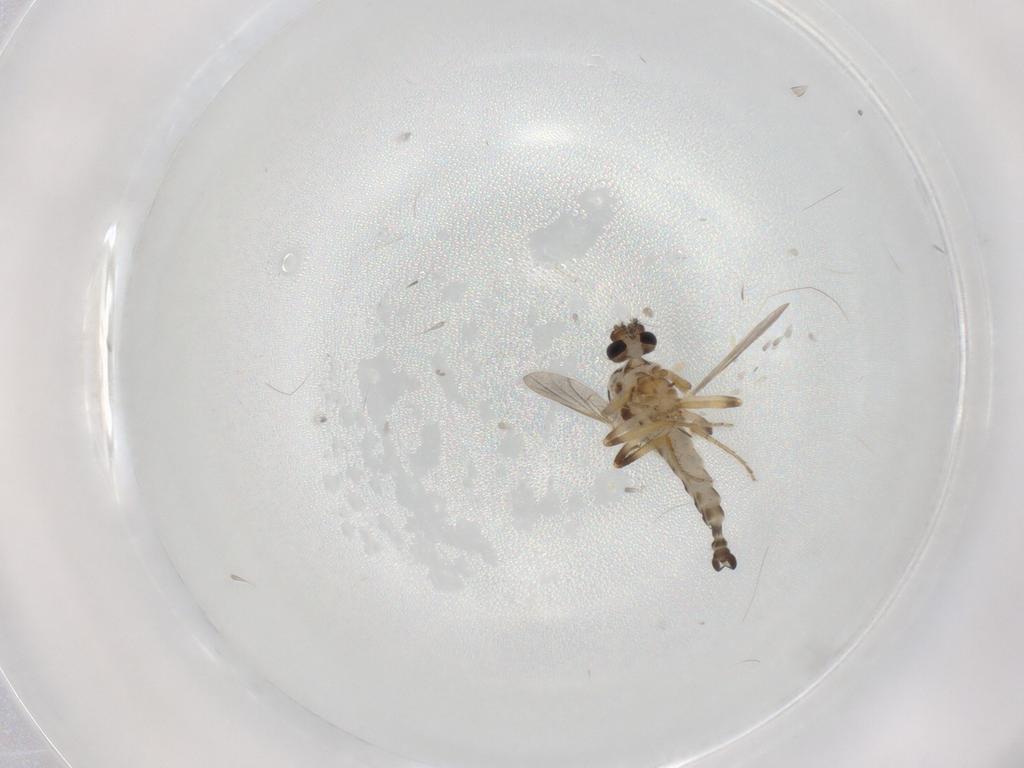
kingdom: Animalia
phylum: Arthropoda
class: Insecta
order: Diptera
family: Ceratopogonidae
